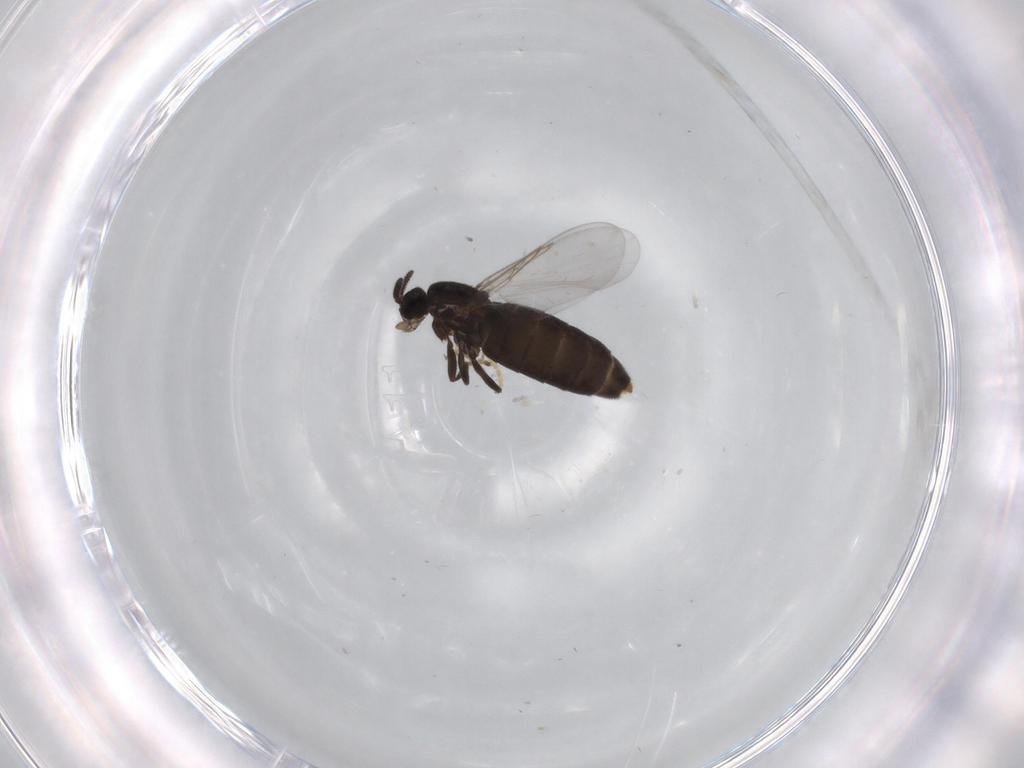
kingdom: Animalia
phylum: Arthropoda
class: Insecta
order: Diptera
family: Scatopsidae
